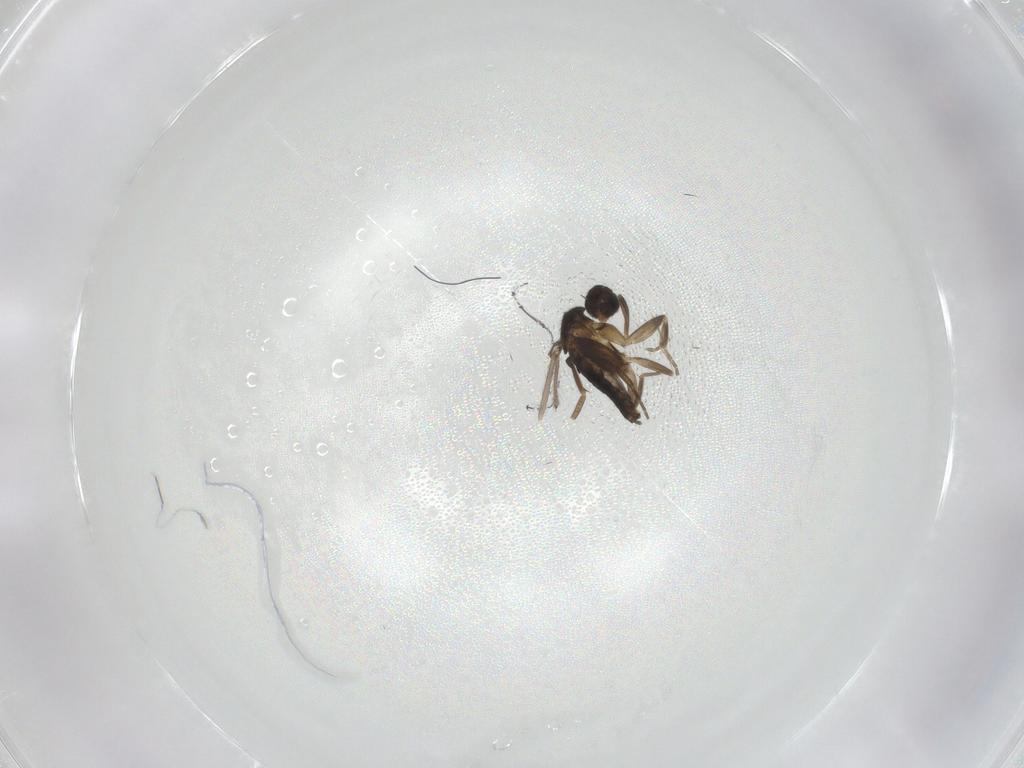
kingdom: Animalia
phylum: Arthropoda
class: Insecta
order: Diptera
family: Chironomidae
